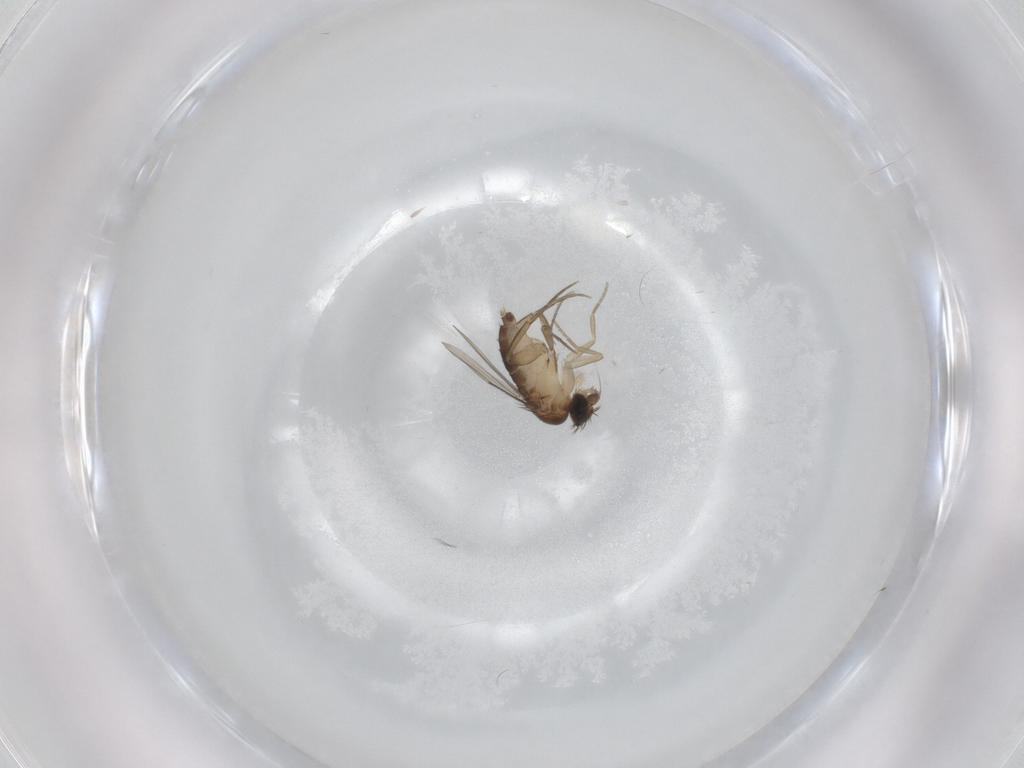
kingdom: Animalia
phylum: Arthropoda
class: Insecta
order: Diptera
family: Phoridae
